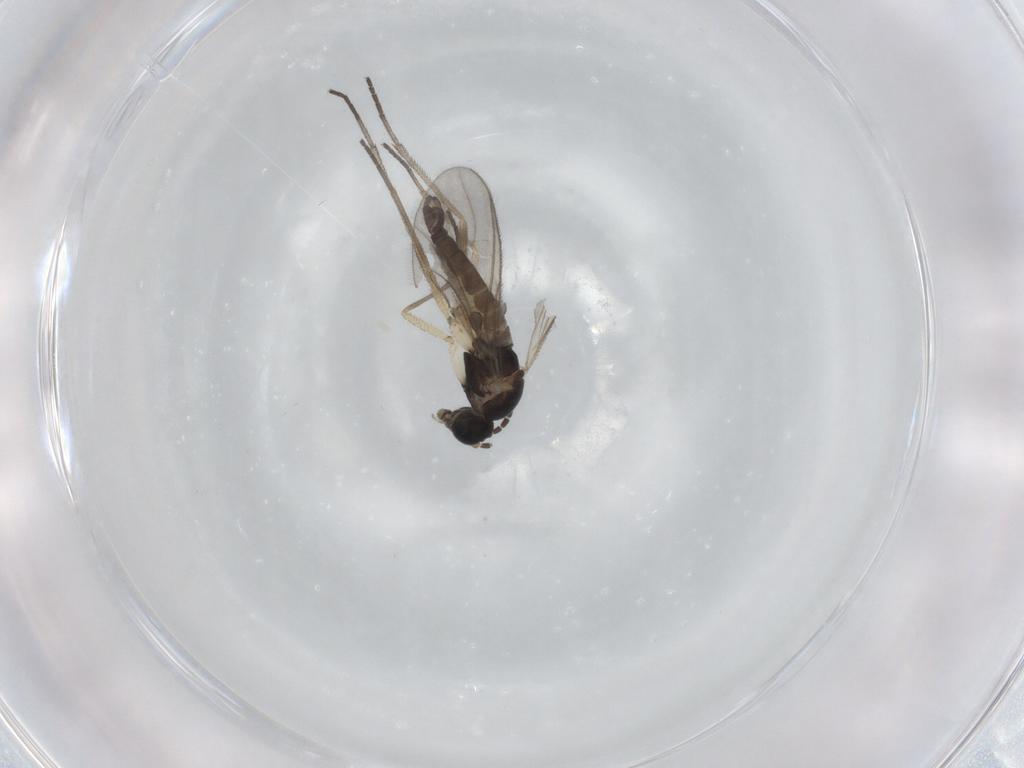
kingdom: Animalia
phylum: Arthropoda
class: Insecta
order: Diptera
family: Sciaridae
